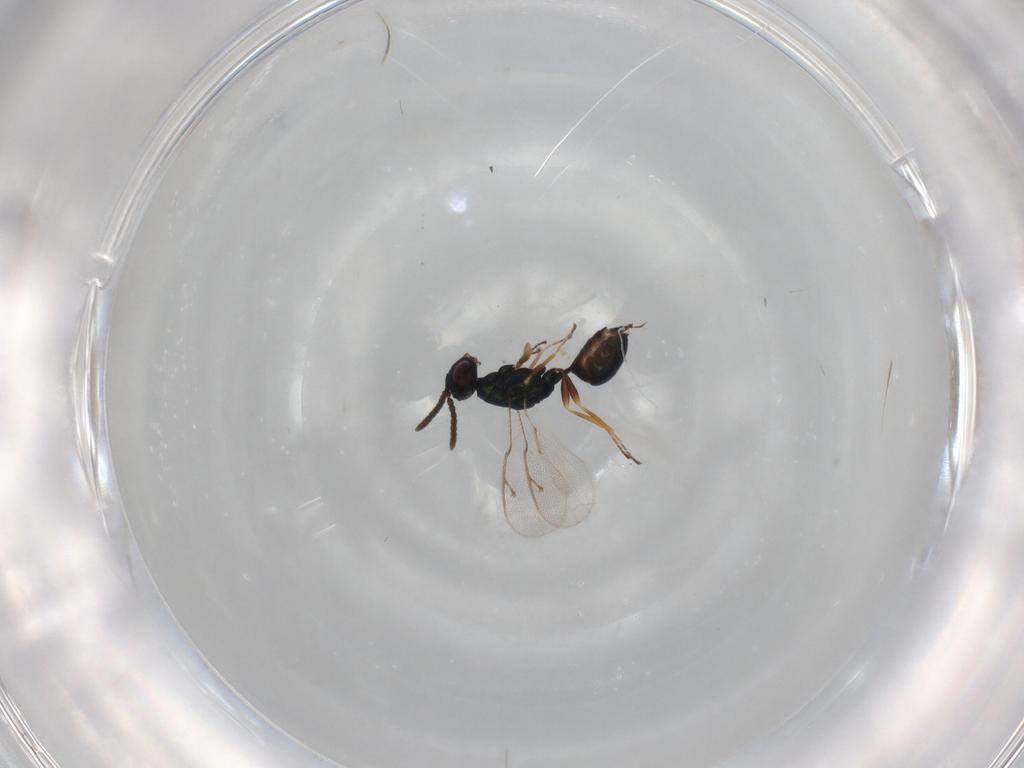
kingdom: Animalia
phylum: Arthropoda
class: Insecta
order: Hymenoptera
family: Pteromalidae
